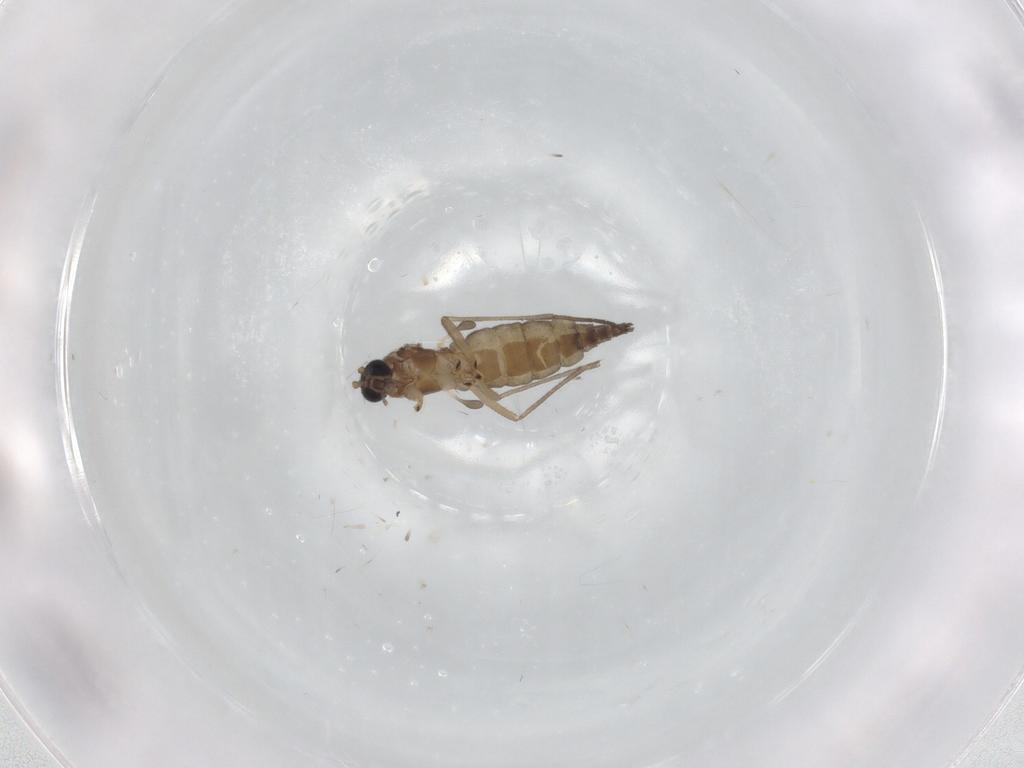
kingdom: Animalia
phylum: Arthropoda
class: Insecta
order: Diptera
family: Sciaridae
